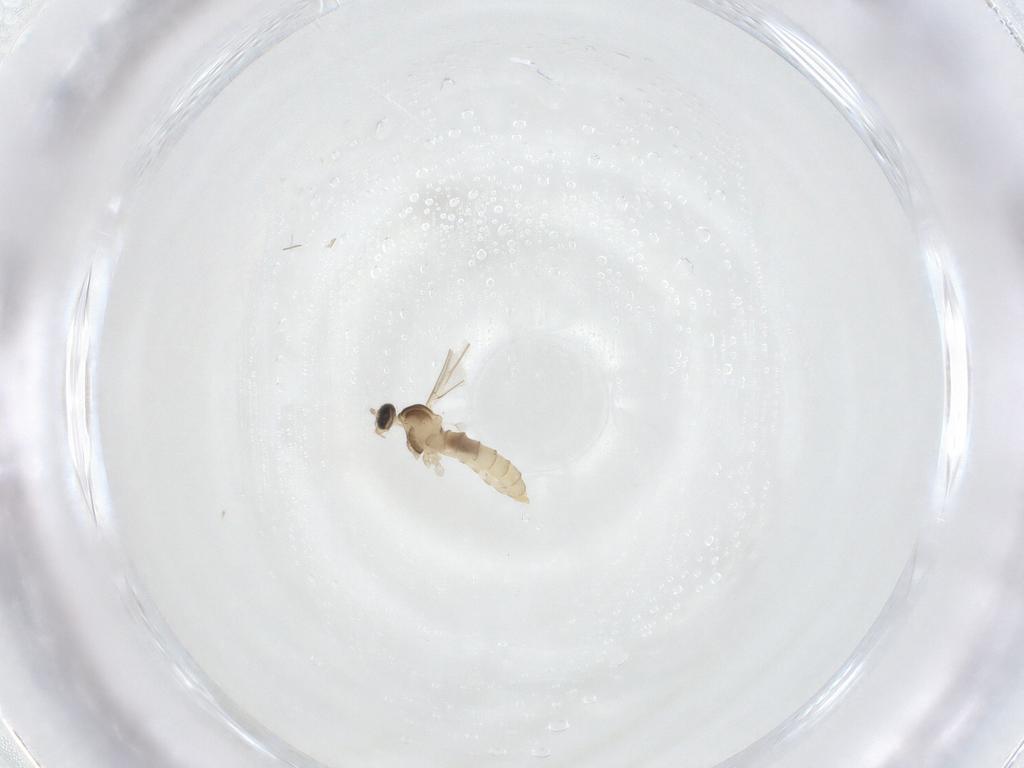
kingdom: Animalia
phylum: Arthropoda
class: Insecta
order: Diptera
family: Cecidomyiidae
